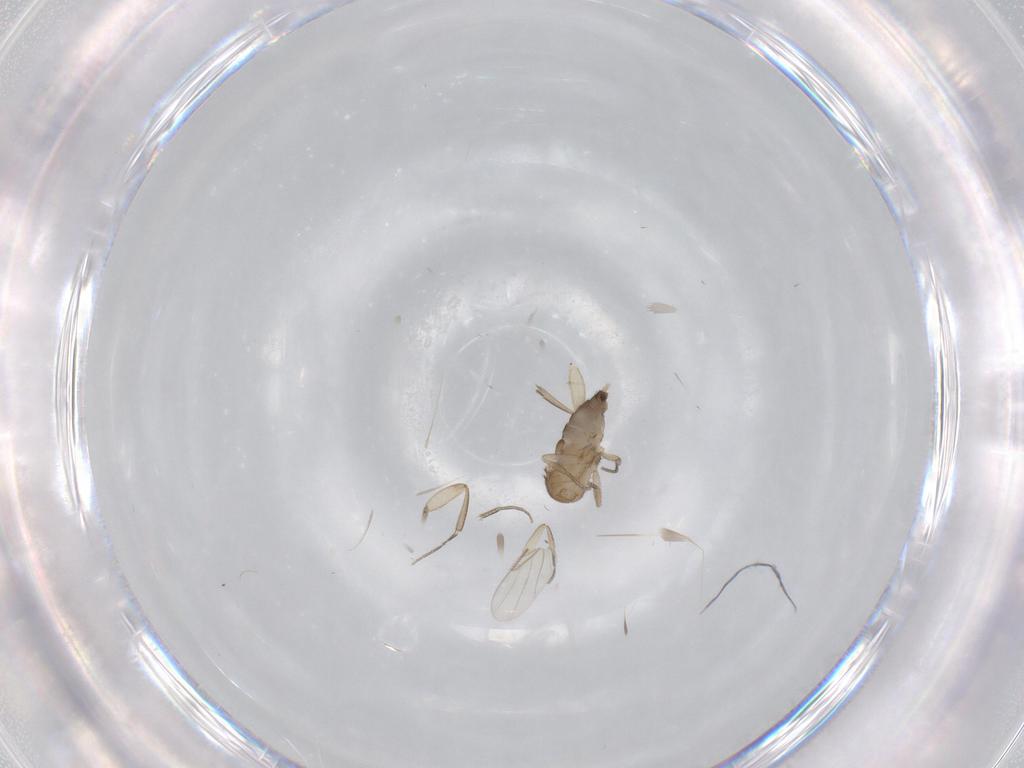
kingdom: Animalia
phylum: Arthropoda
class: Insecta
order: Diptera
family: Phoridae
